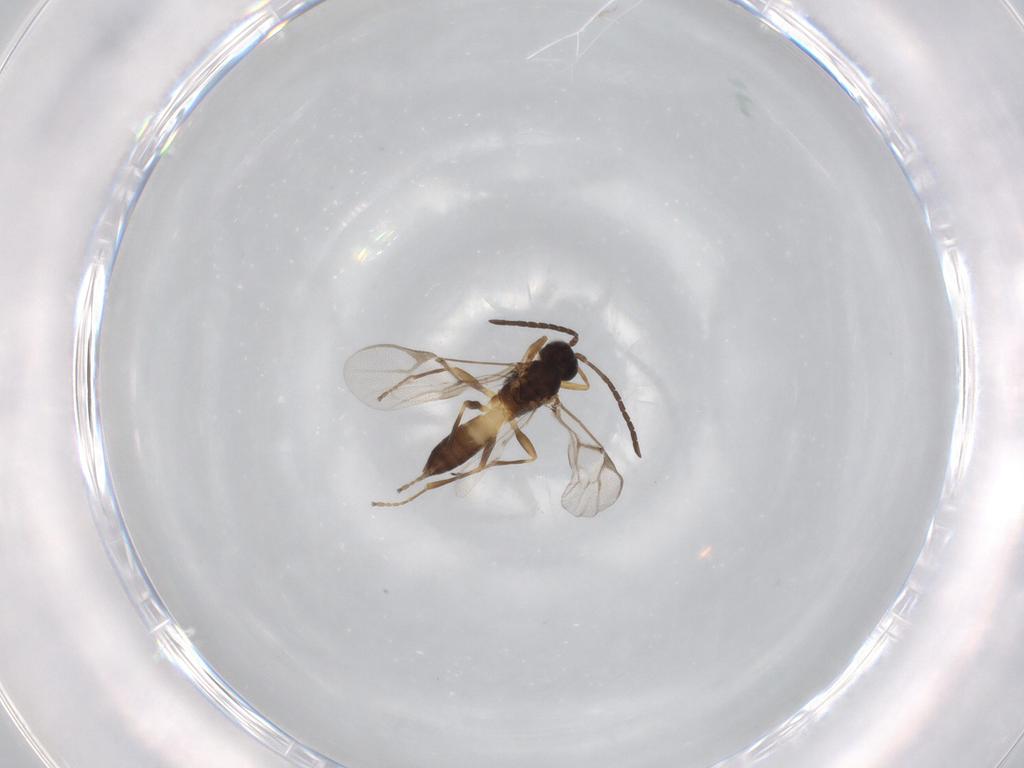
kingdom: Animalia
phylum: Arthropoda
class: Insecta
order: Hymenoptera
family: Braconidae
